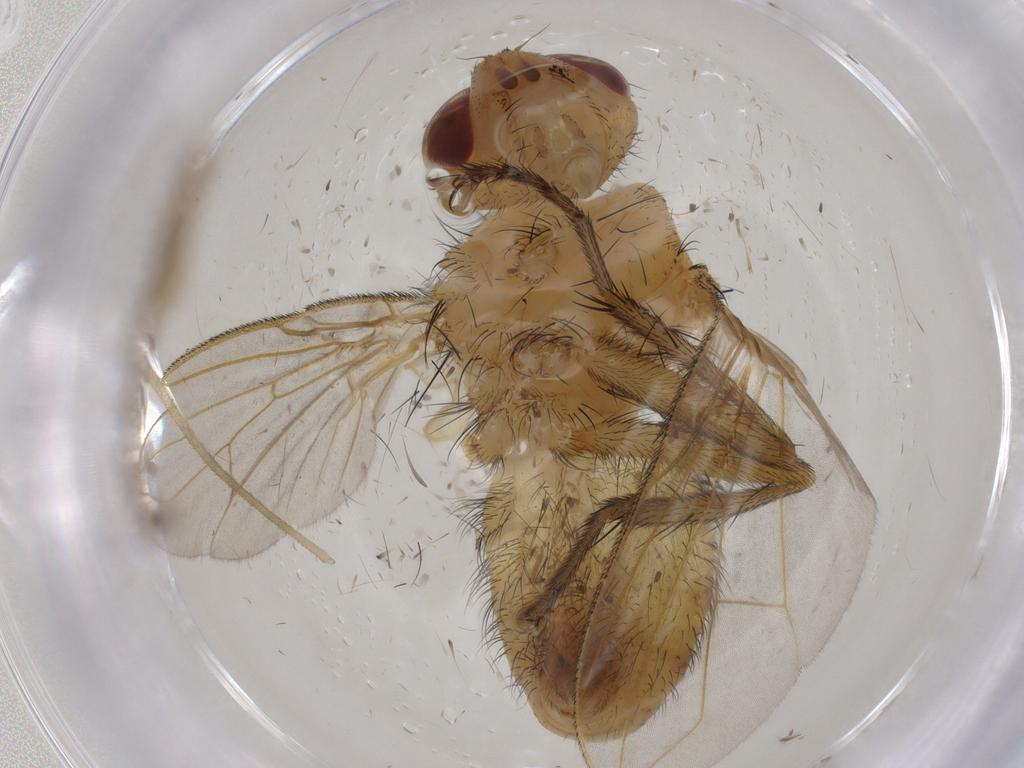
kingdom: Animalia
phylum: Arthropoda
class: Insecta
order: Diptera
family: Tachinidae
